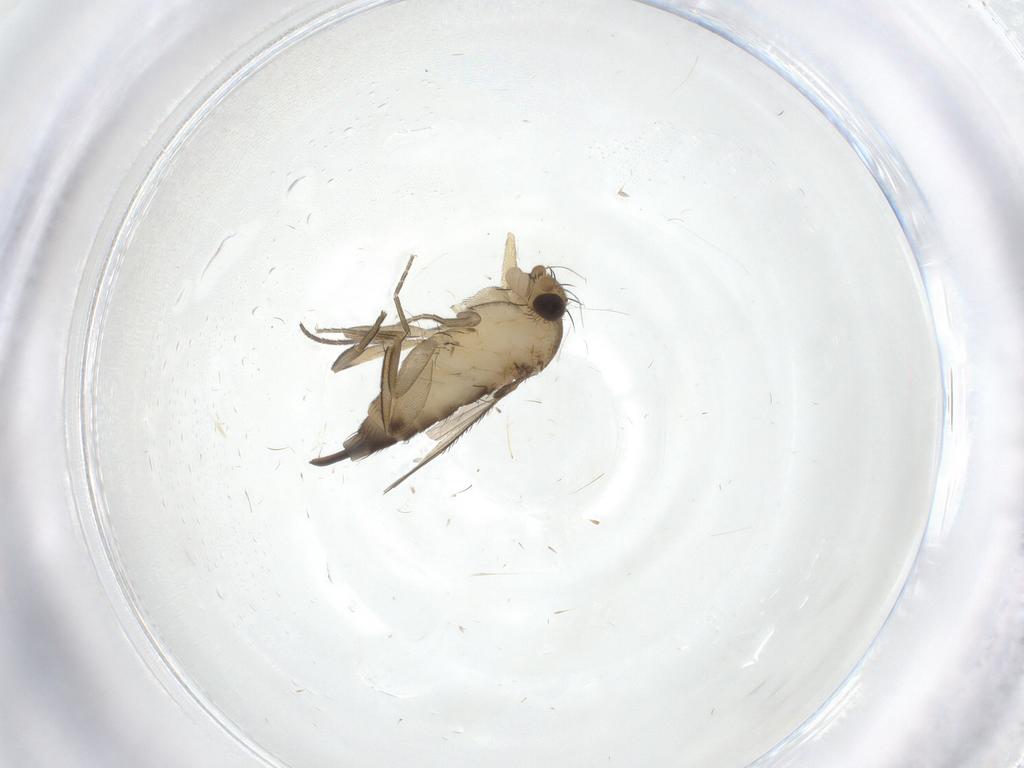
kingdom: Animalia
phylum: Arthropoda
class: Insecta
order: Diptera
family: Phoridae
